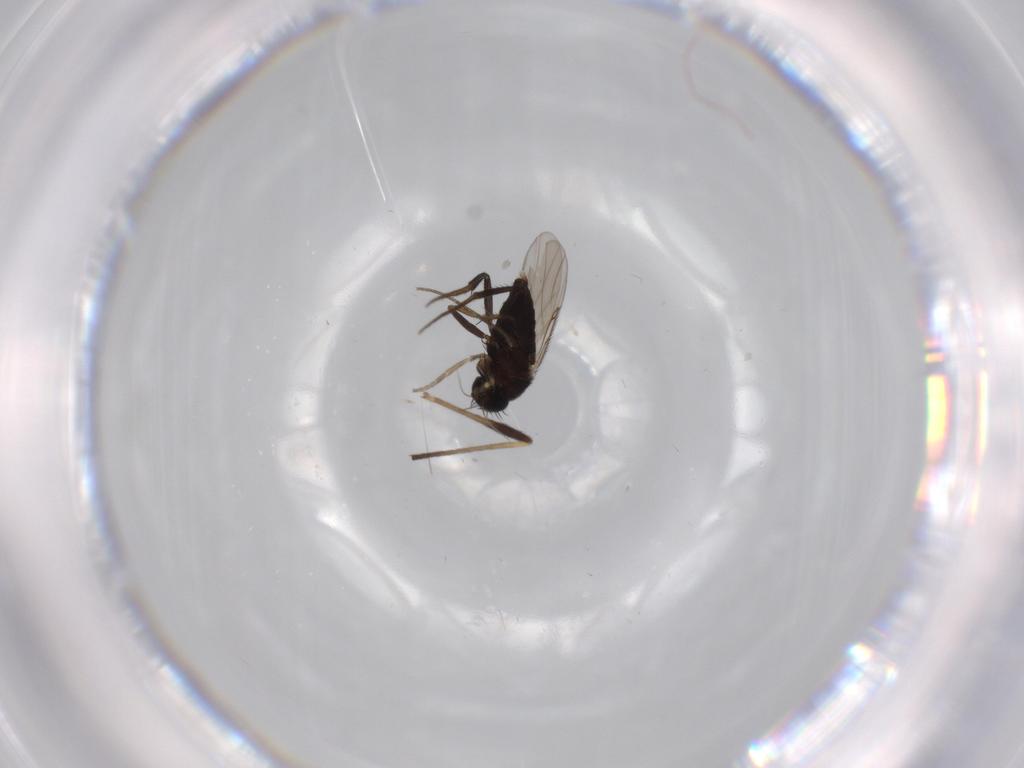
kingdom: Animalia
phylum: Arthropoda
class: Insecta
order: Diptera
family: Chironomidae
